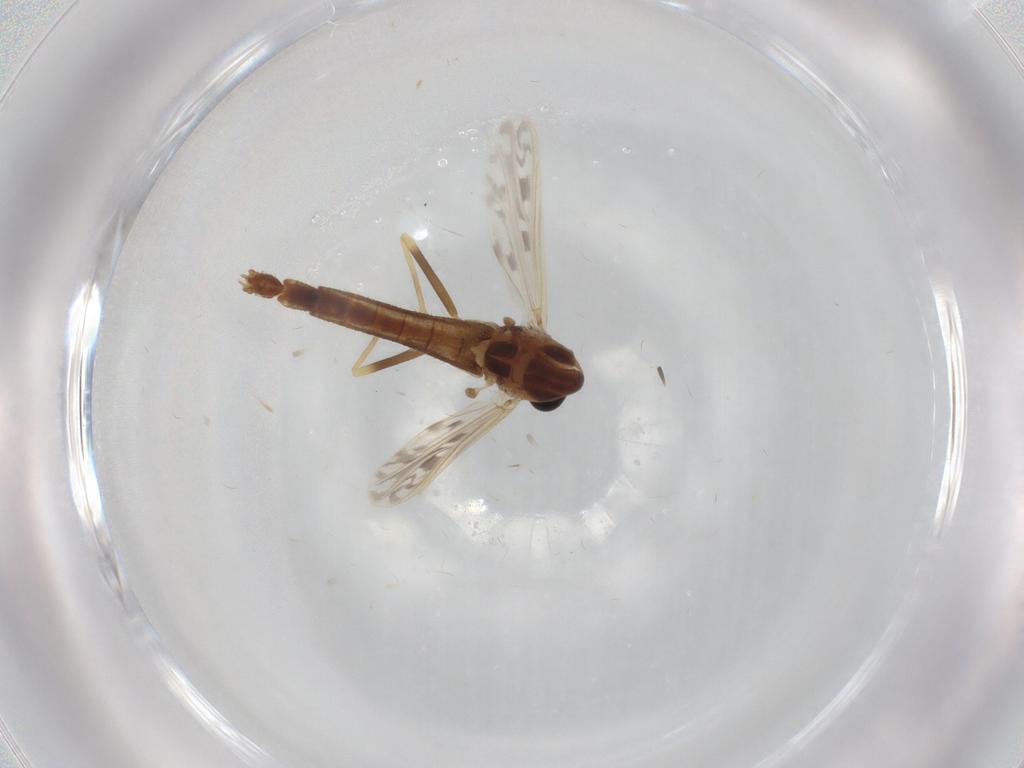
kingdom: Animalia
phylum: Arthropoda
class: Insecta
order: Diptera
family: Chironomidae
